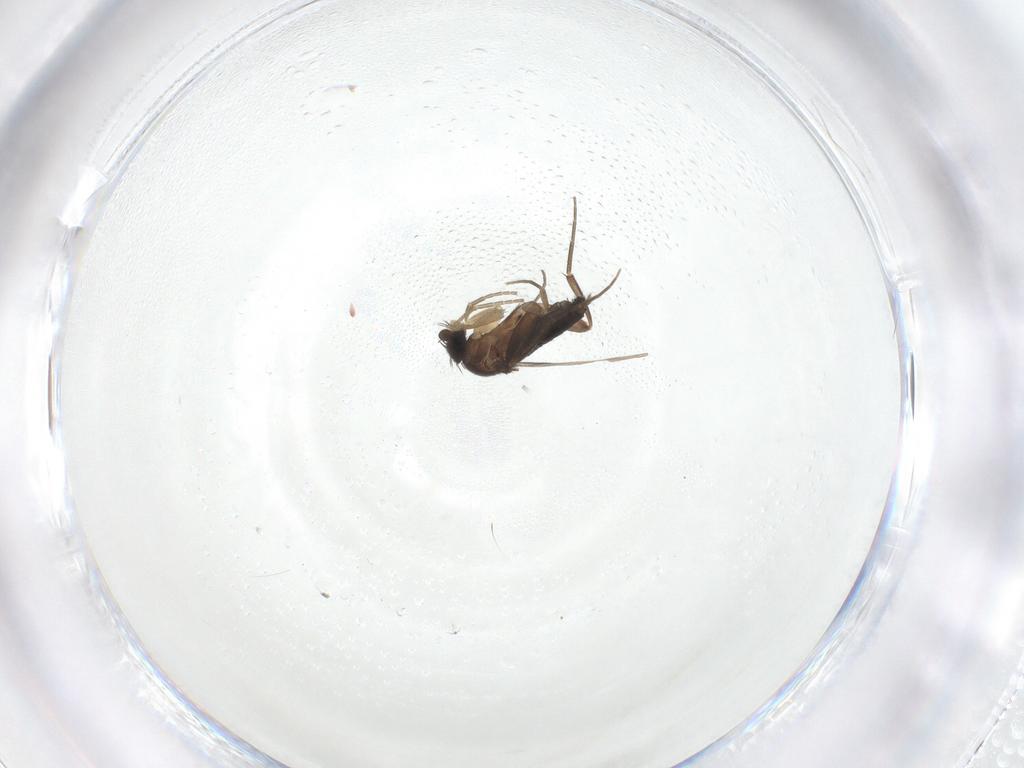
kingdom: Animalia
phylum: Arthropoda
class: Insecta
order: Diptera
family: Phoridae
